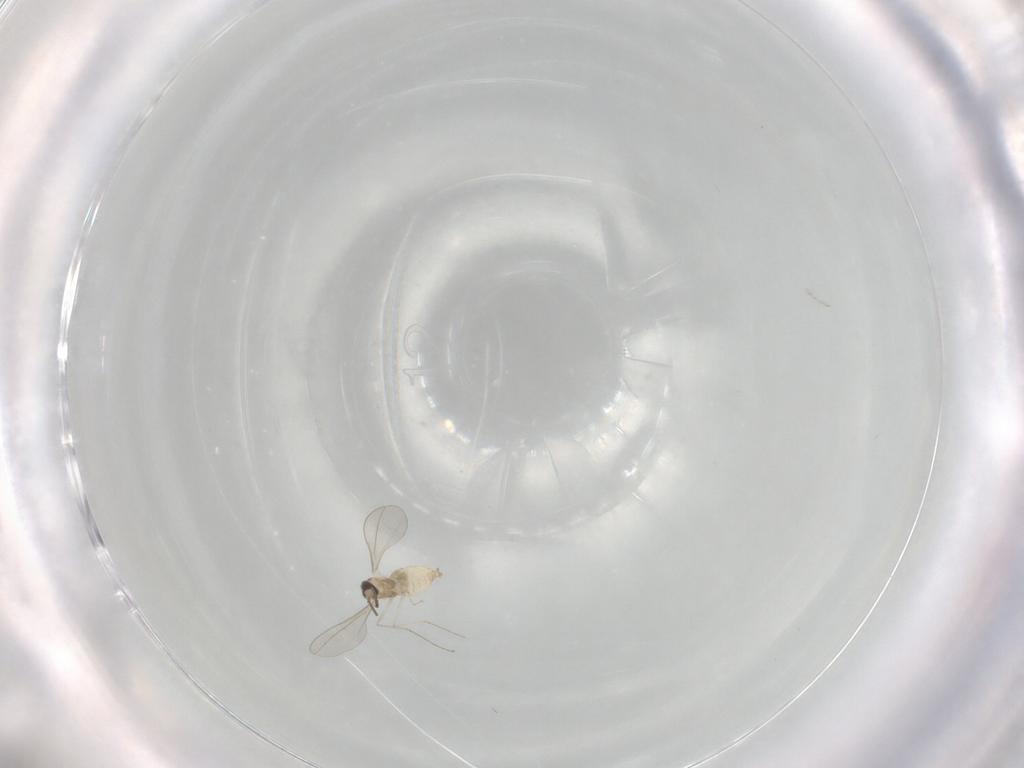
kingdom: Animalia
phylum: Arthropoda
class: Insecta
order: Diptera
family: Cecidomyiidae
